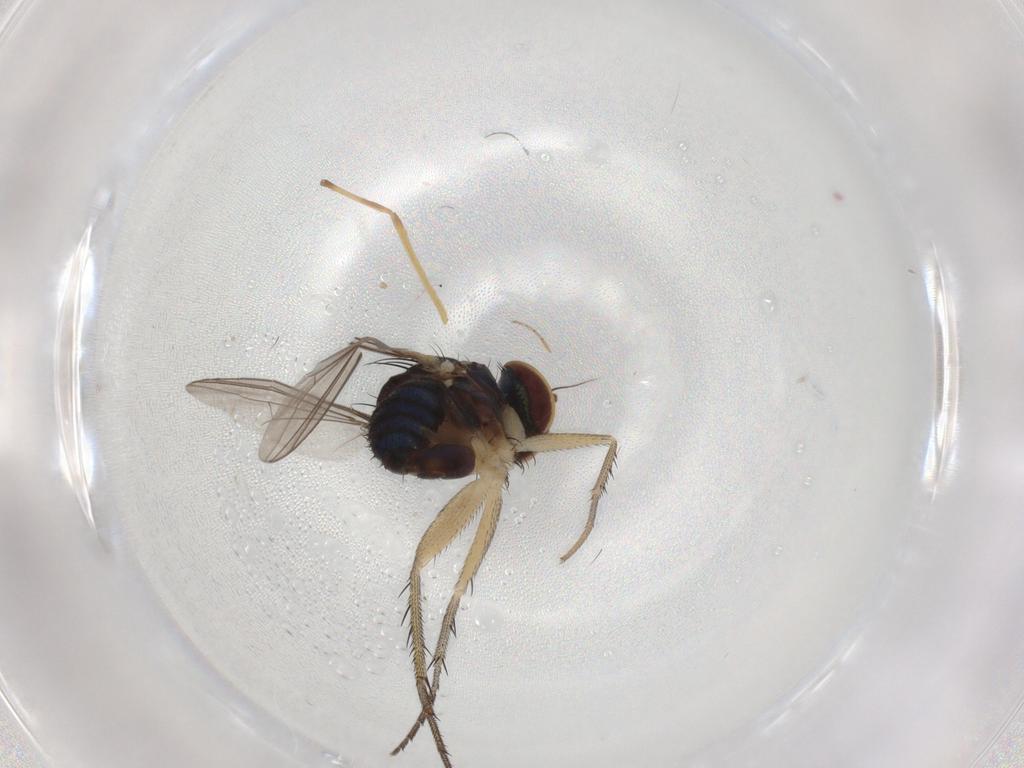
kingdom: Animalia
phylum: Arthropoda
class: Insecta
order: Diptera
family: Dolichopodidae
